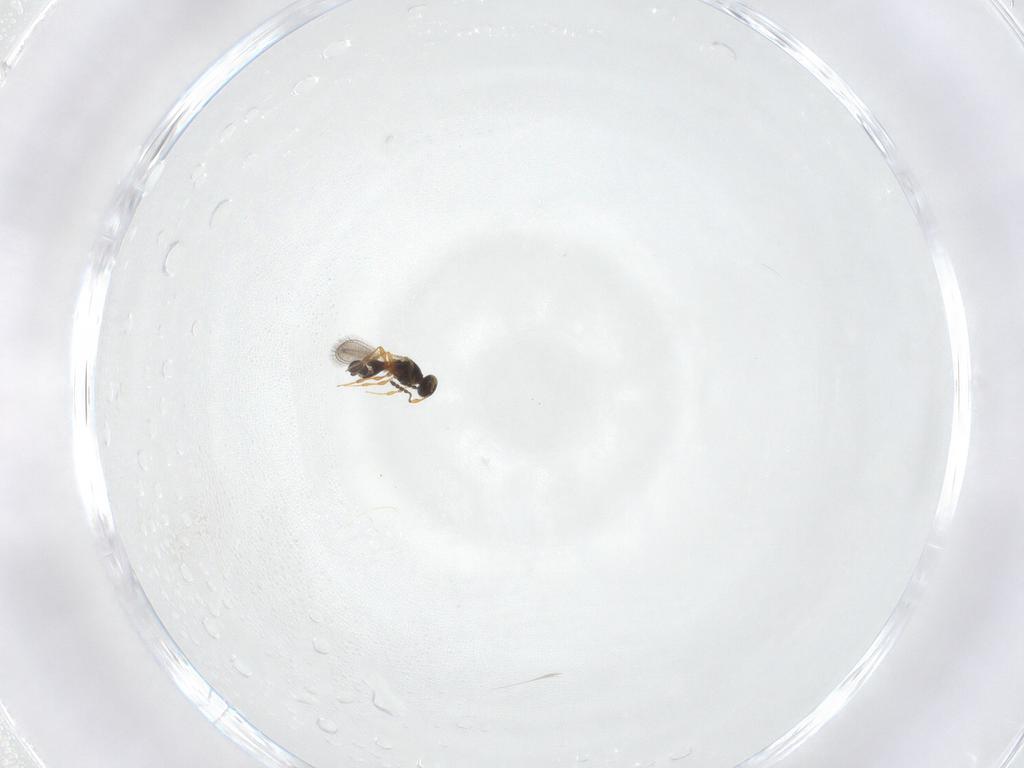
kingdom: Animalia
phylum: Arthropoda
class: Insecta
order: Hymenoptera
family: Platygastridae
